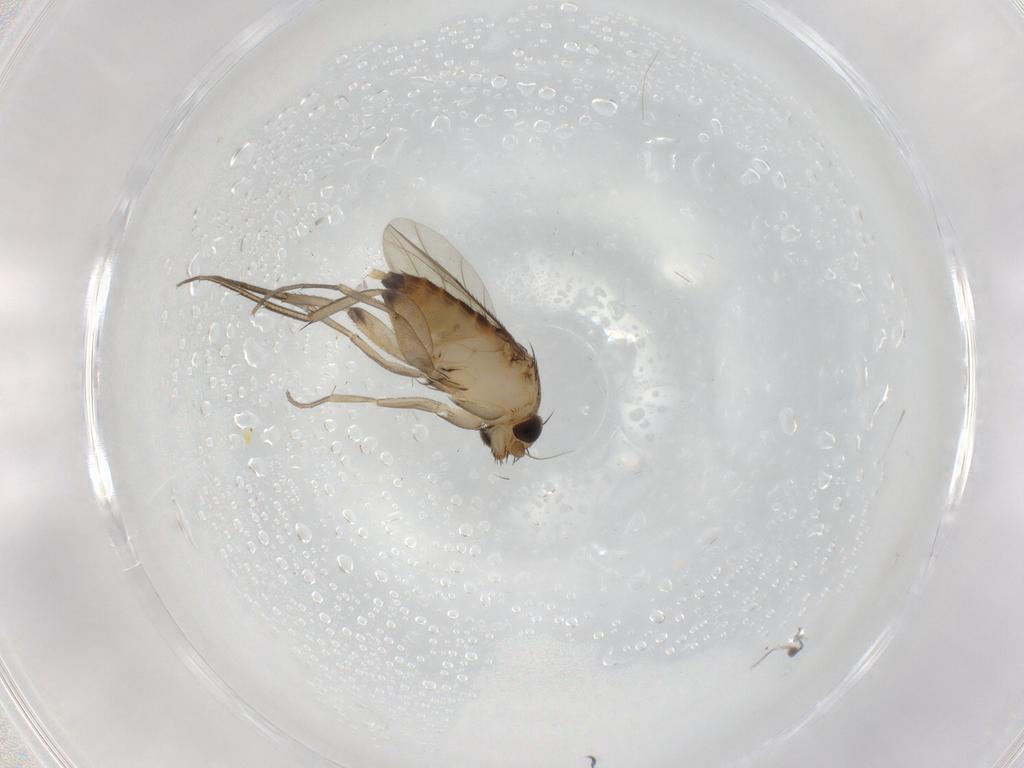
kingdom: Animalia
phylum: Arthropoda
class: Insecta
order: Diptera
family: Phoridae
